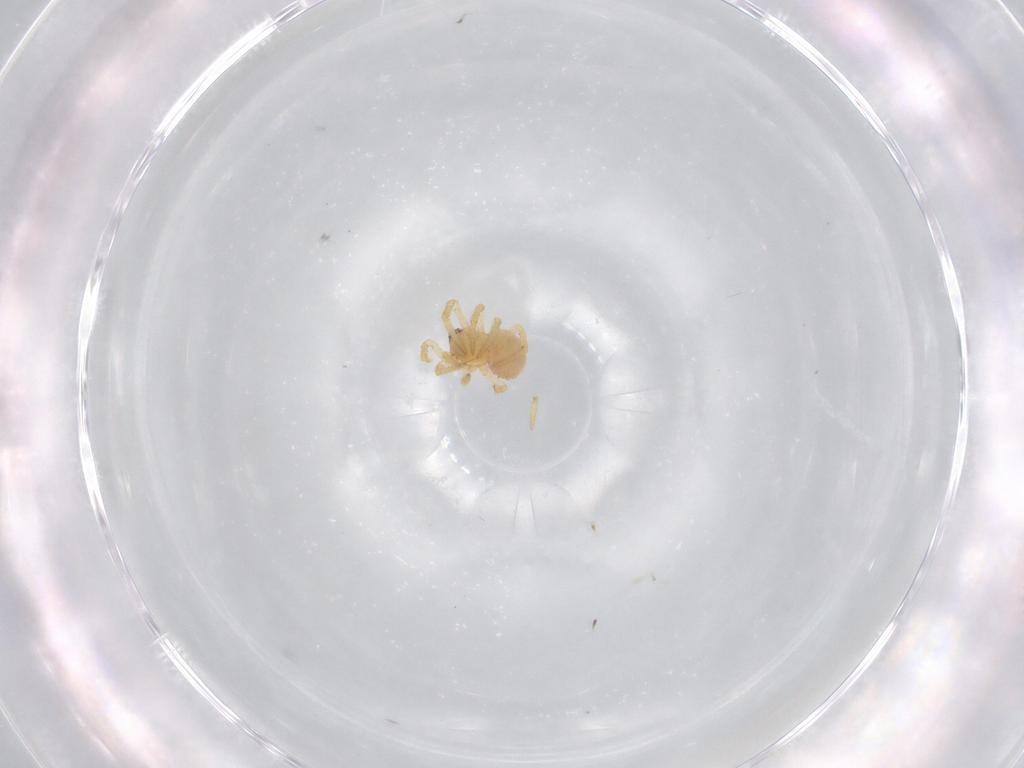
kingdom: Animalia
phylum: Arthropoda
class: Arachnida
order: Araneae
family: Theridiidae
